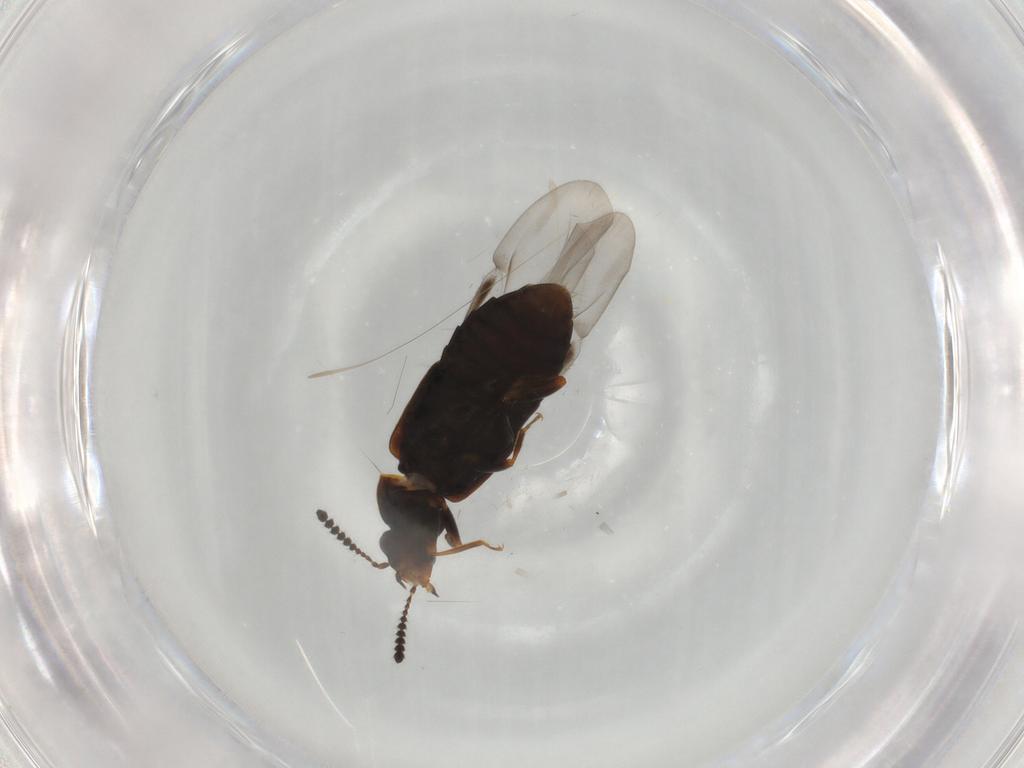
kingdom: Animalia
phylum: Arthropoda
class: Insecta
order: Coleoptera
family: Staphylinidae
